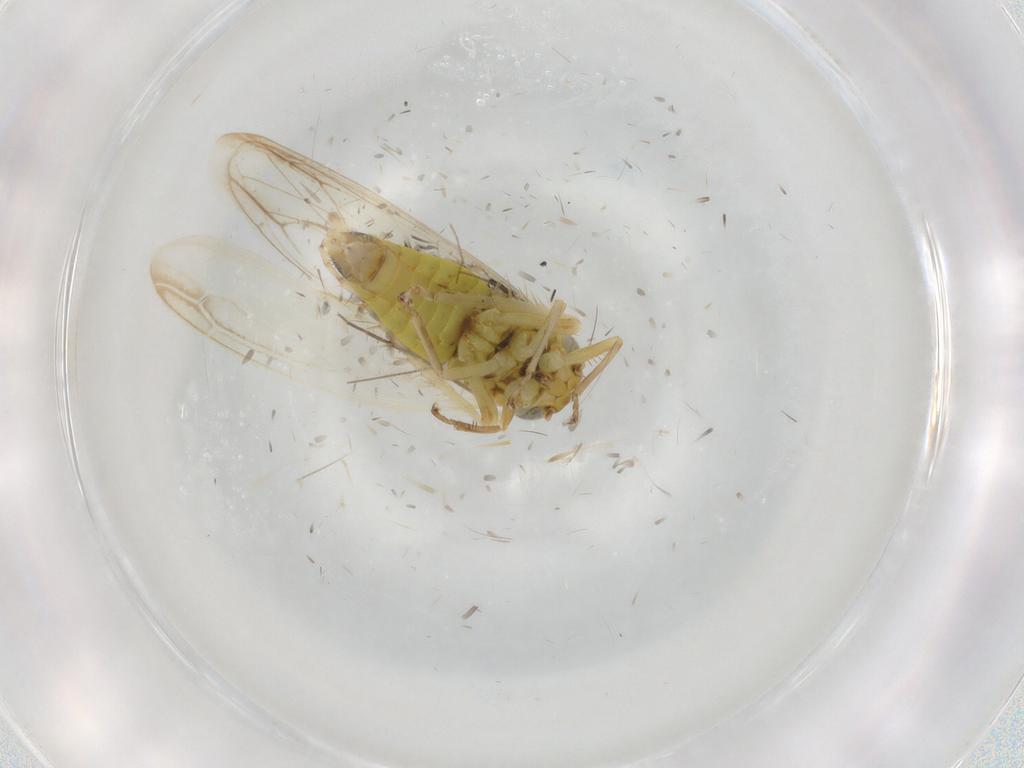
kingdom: Animalia
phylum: Arthropoda
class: Insecta
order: Hemiptera
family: Cicadellidae
